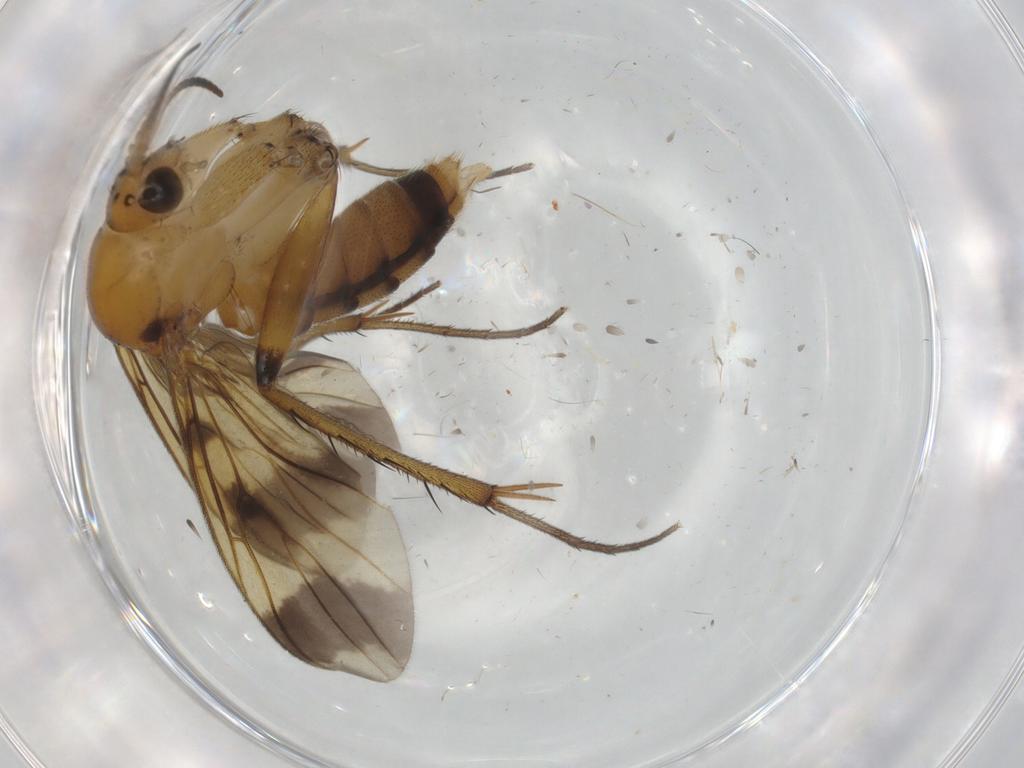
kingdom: Animalia
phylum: Arthropoda
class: Insecta
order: Diptera
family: Mycetophilidae
